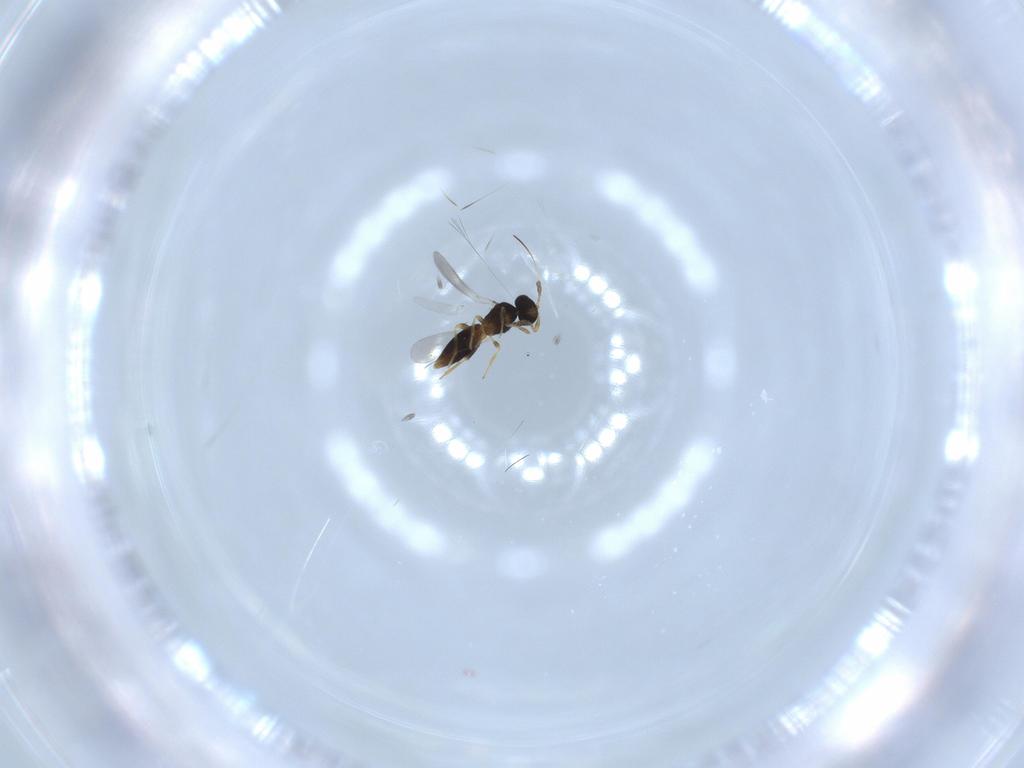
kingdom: Animalia
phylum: Arthropoda
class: Insecta
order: Hymenoptera
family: Platygastridae
